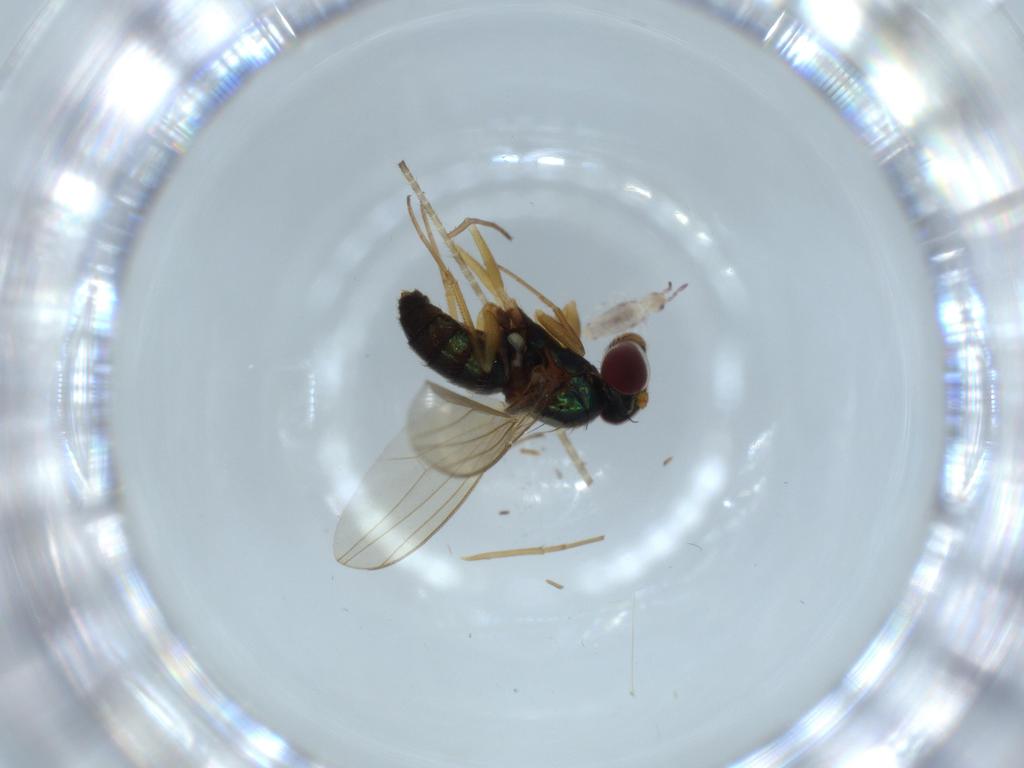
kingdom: Animalia
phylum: Arthropoda
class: Insecta
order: Diptera
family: Dolichopodidae
